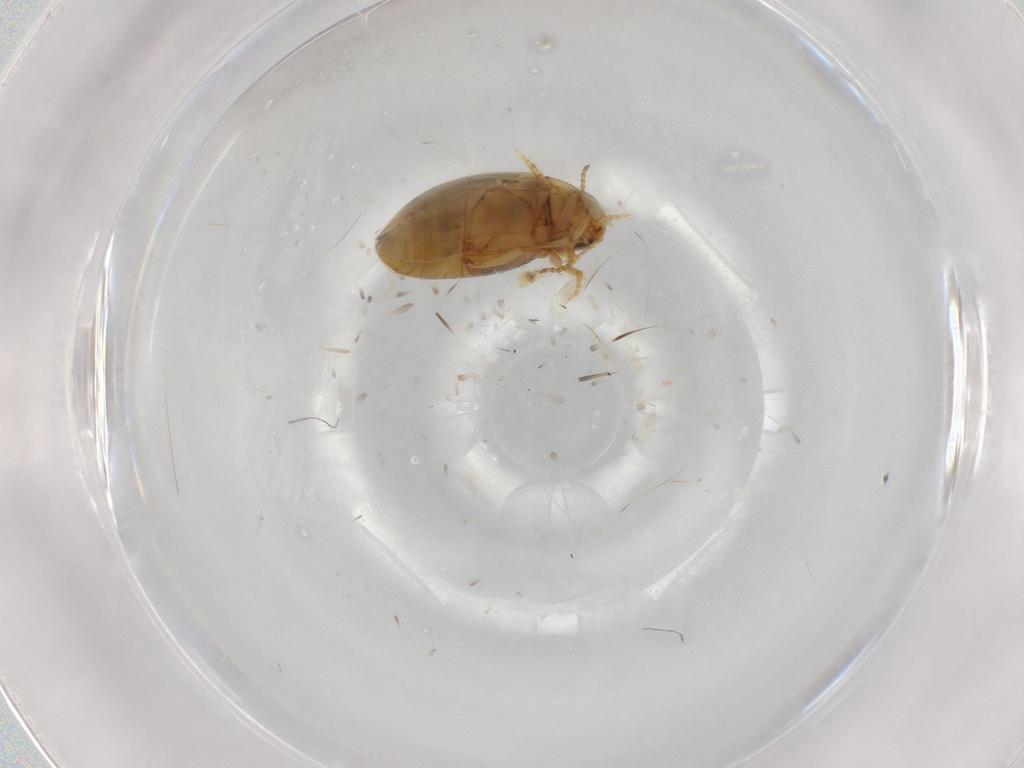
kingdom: Animalia
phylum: Arthropoda
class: Insecta
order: Coleoptera
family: Dytiscidae
